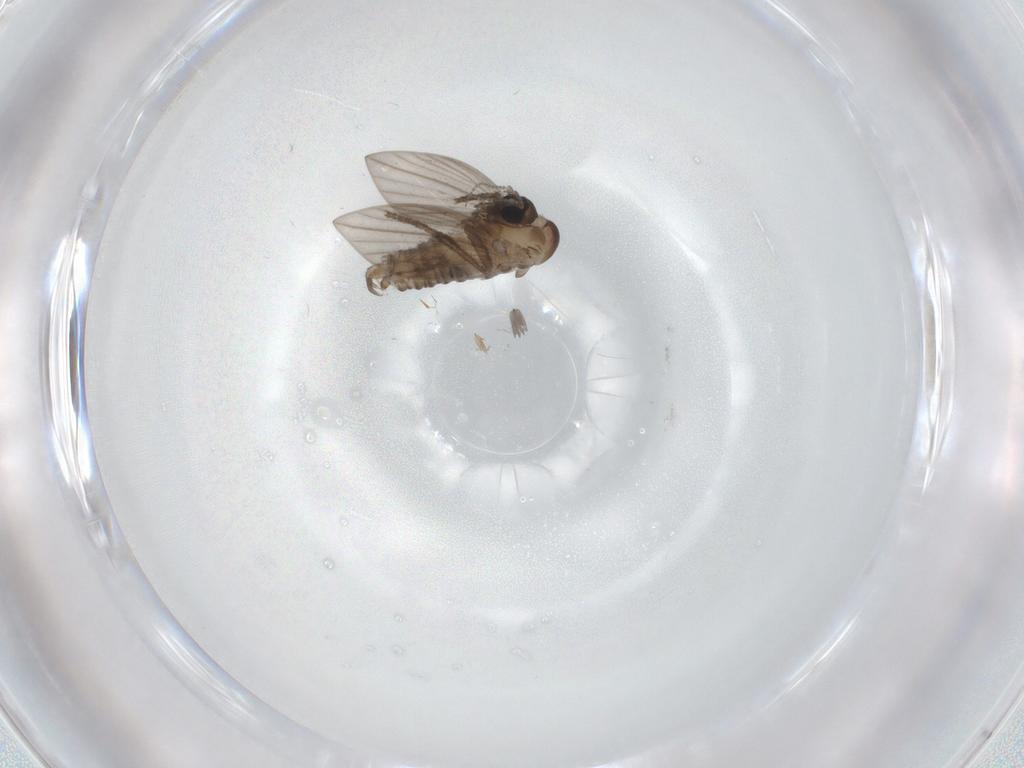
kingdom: Animalia
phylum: Arthropoda
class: Insecta
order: Diptera
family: Psychodidae
